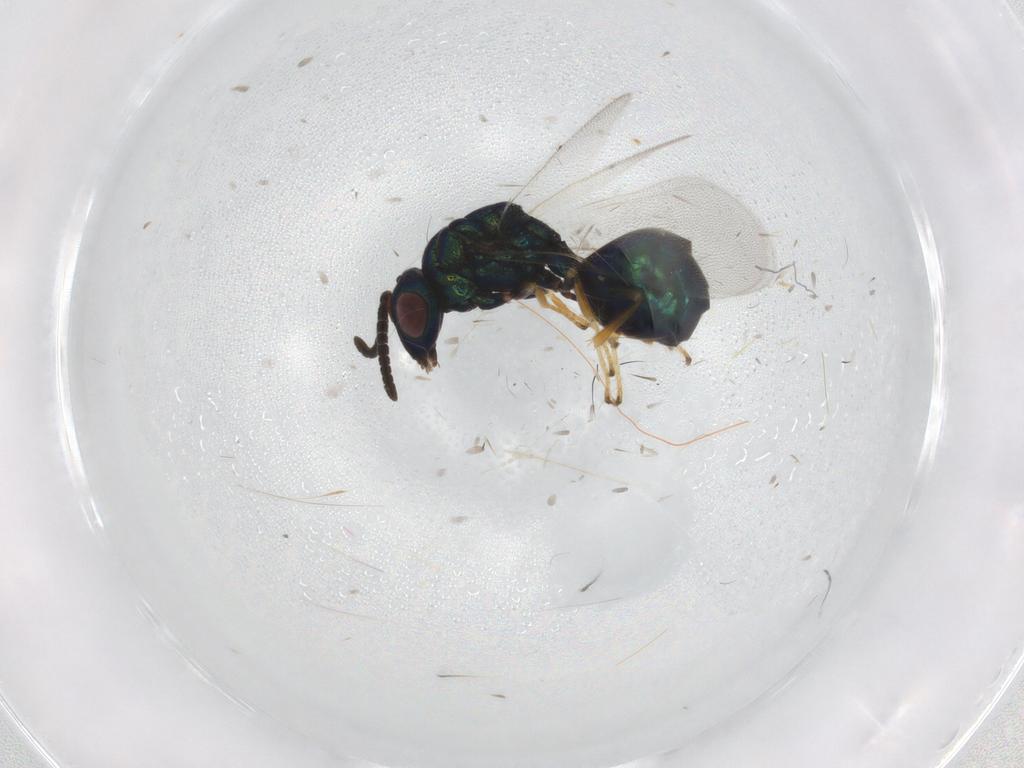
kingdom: Animalia
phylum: Arthropoda
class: Insecta
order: Hymenoptera
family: Eucharitidae
